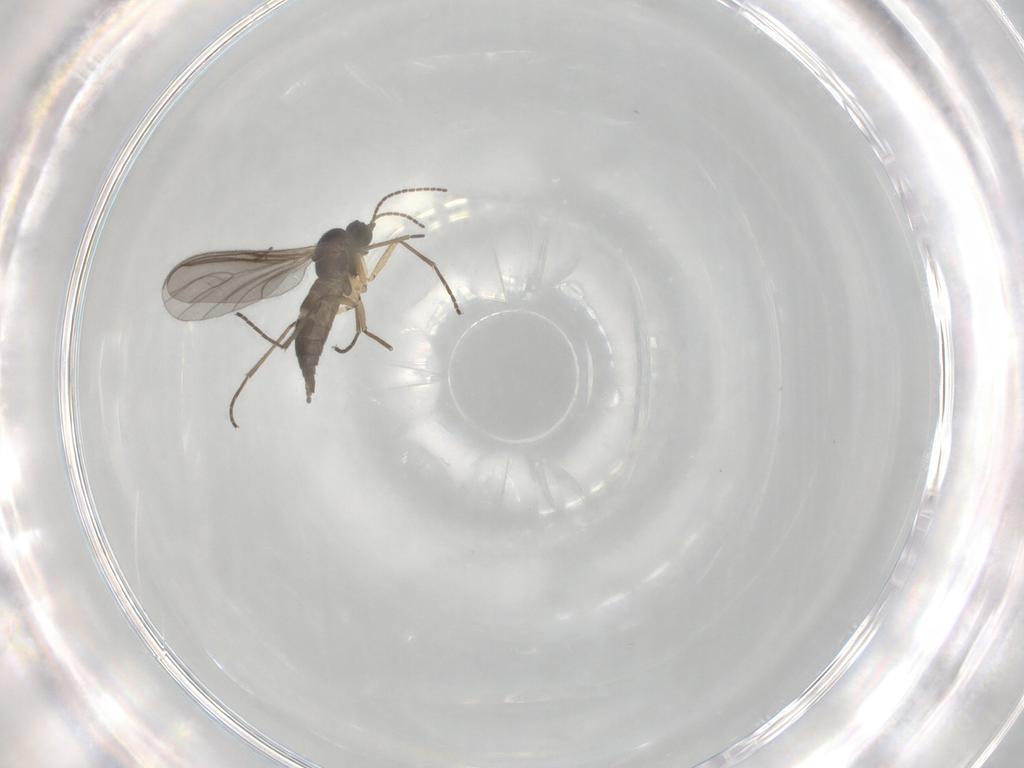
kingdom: Animalia
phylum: Arthropoda
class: Insecta
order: Diptera
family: Sciaridae
